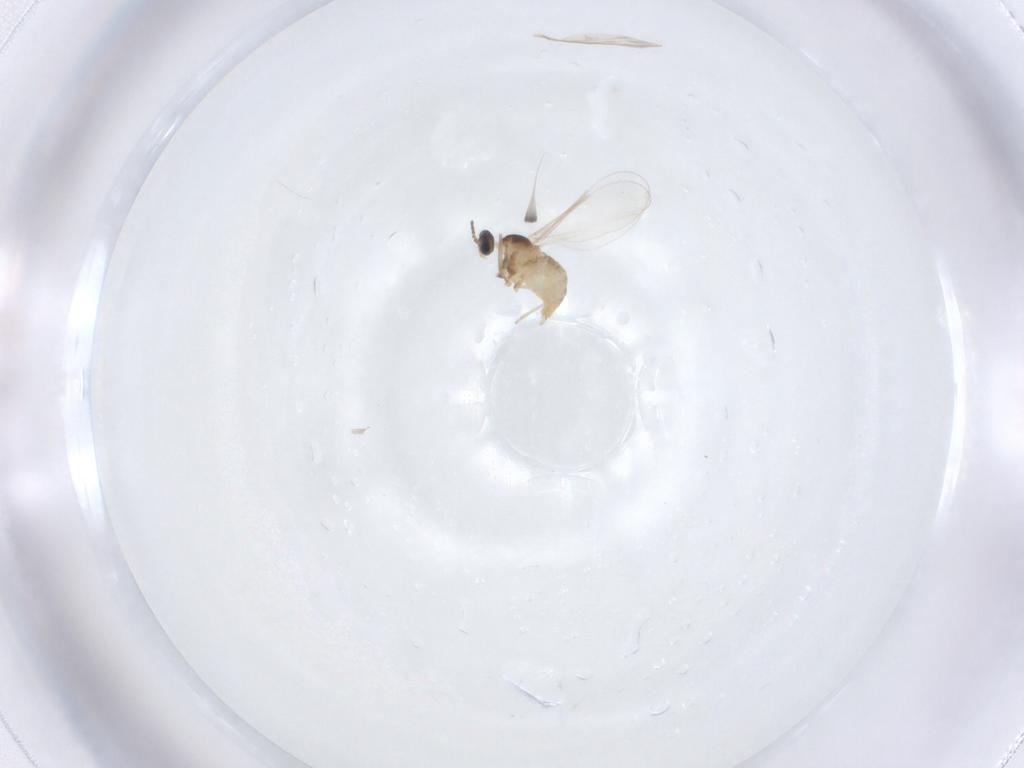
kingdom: Animalia
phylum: Arthropoda
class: Insecta
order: Diptera
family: Cecidomyiidae
